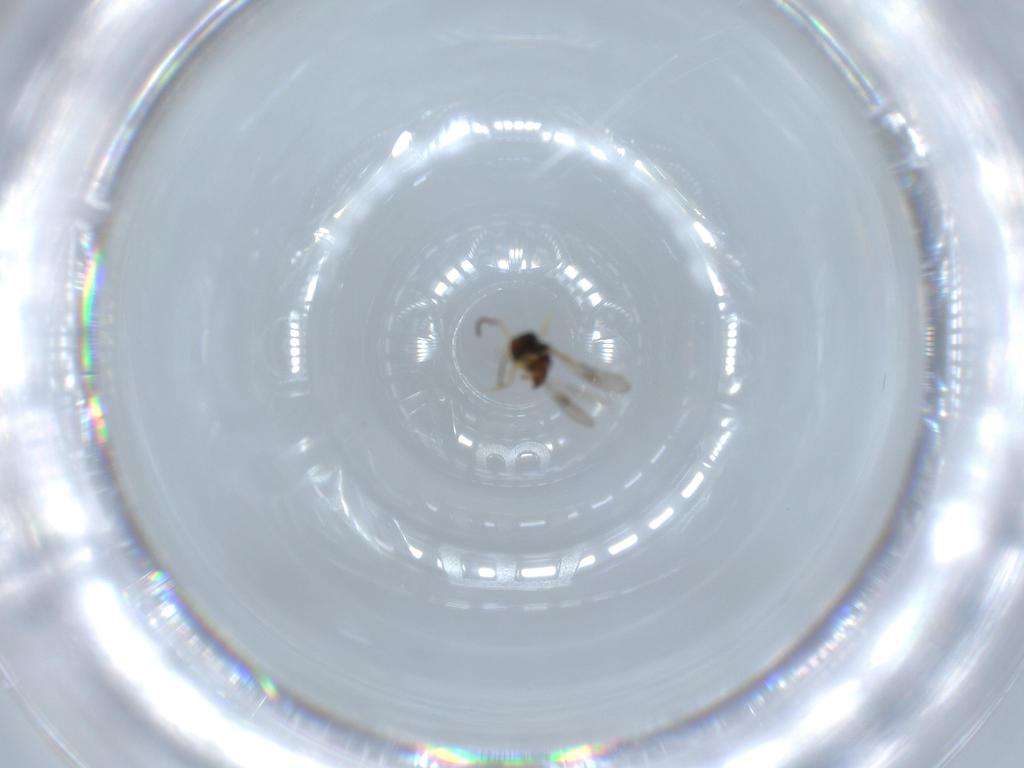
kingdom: Animalia
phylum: Arthropoda
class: Insecta
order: Hymenoptera
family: Scelionidae
